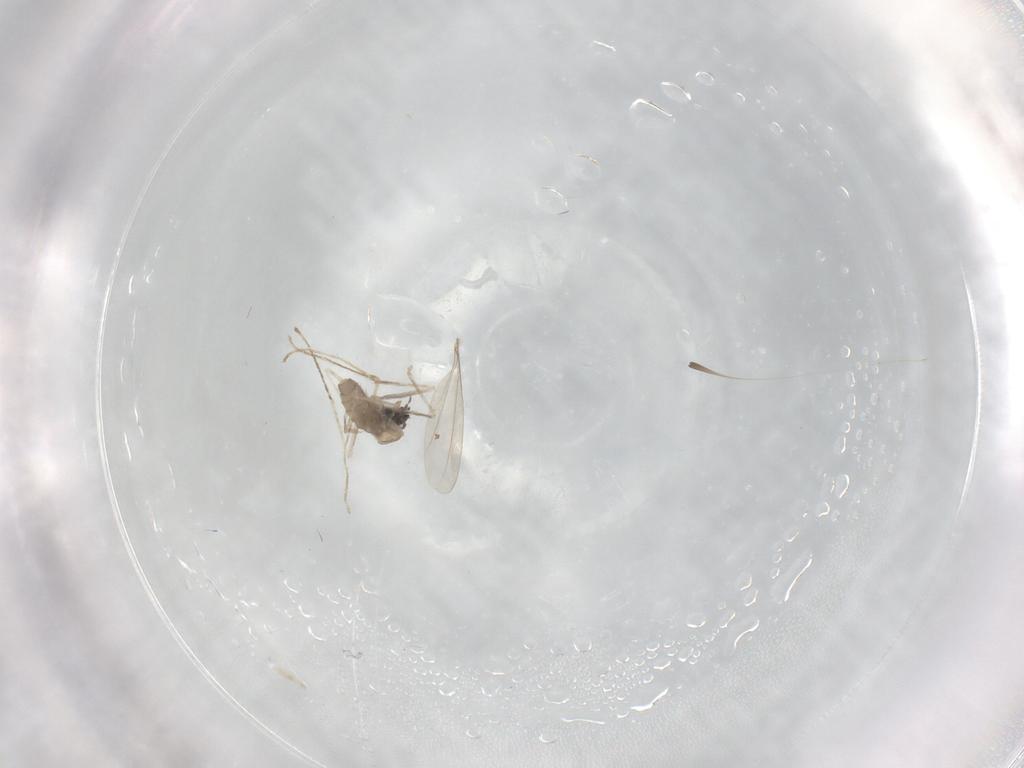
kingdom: Animalia
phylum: Arthropoda
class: Insecta
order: Diptera
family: Cecidomyiidae
